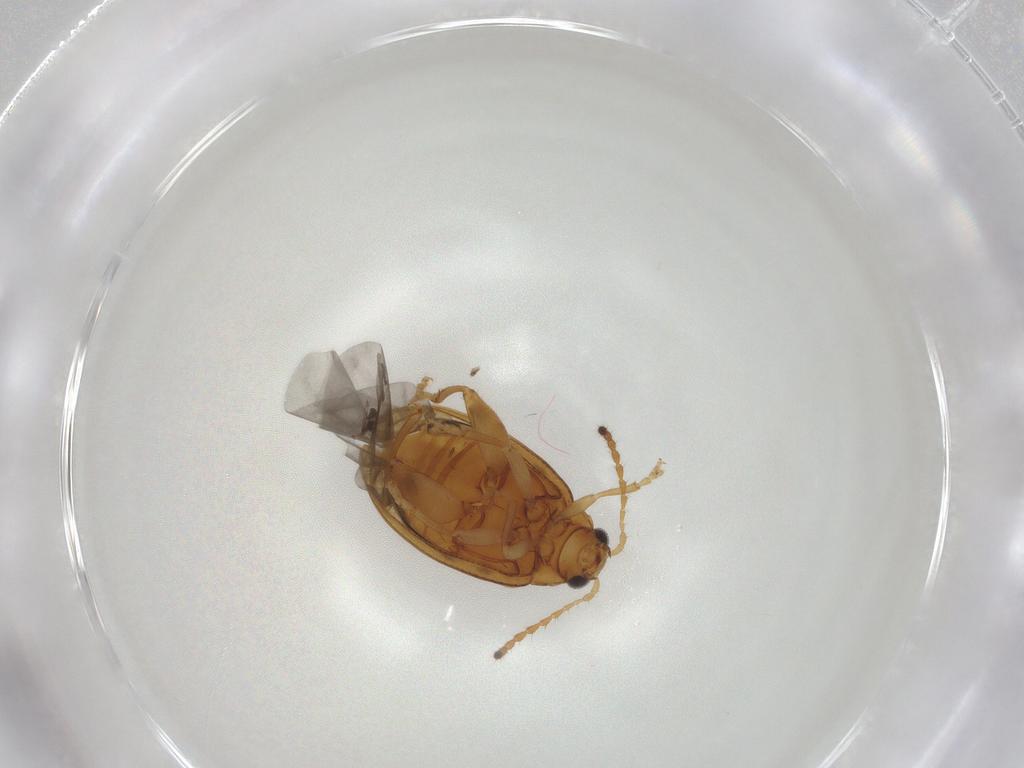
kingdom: Animalia
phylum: Arthropoda
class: Insecta
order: Coleoptera
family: Chrysomelidae
